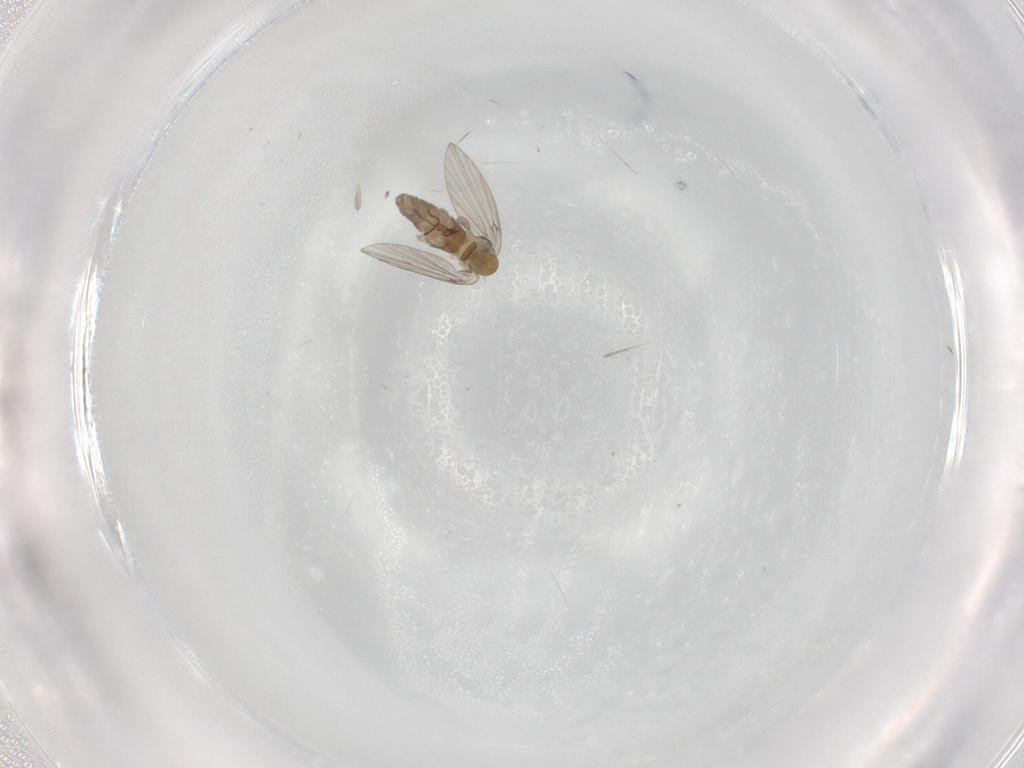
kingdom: Animalia
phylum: Arthropoda
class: Insecta
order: Diptera
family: Psychodidae
